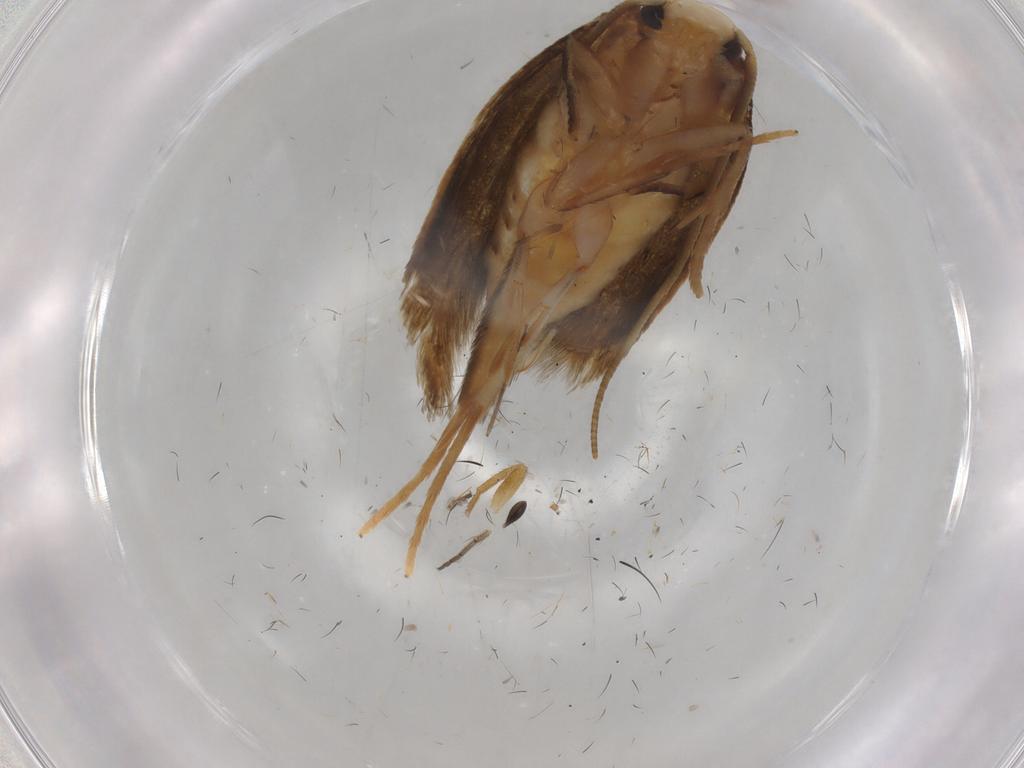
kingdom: Animalia
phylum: Arthropoda
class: Insecta
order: Lepidoptera
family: Tineidae
